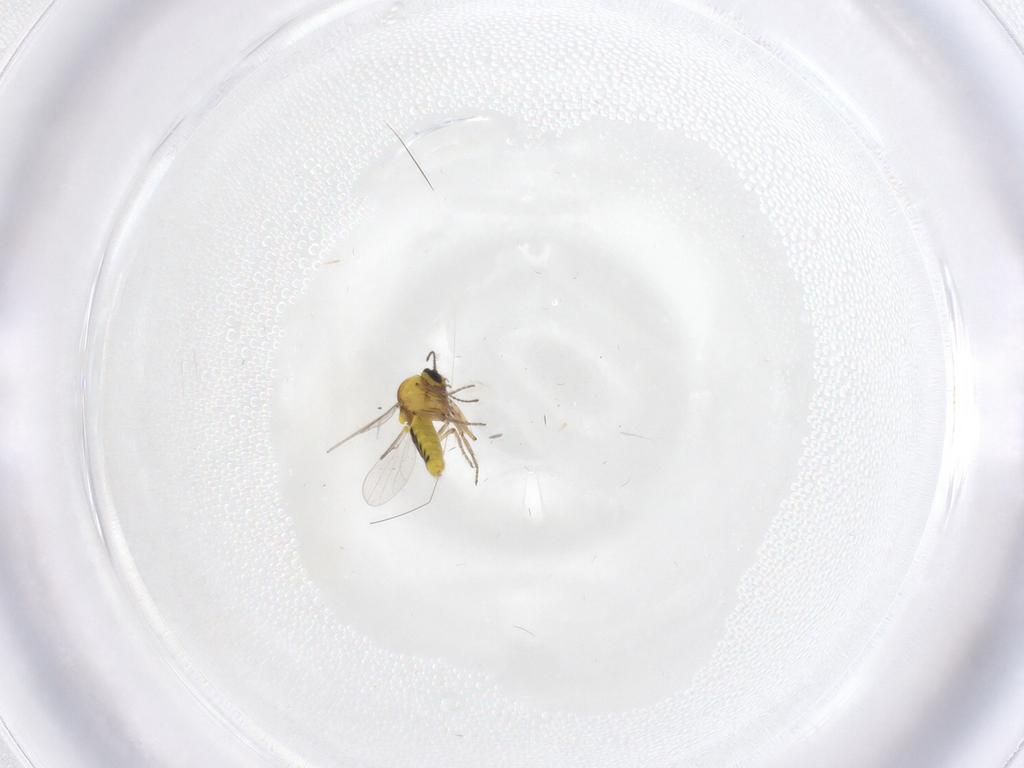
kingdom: Animalia
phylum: Arthropoda
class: Insecta
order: Diptera
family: Ceratopogonidae
